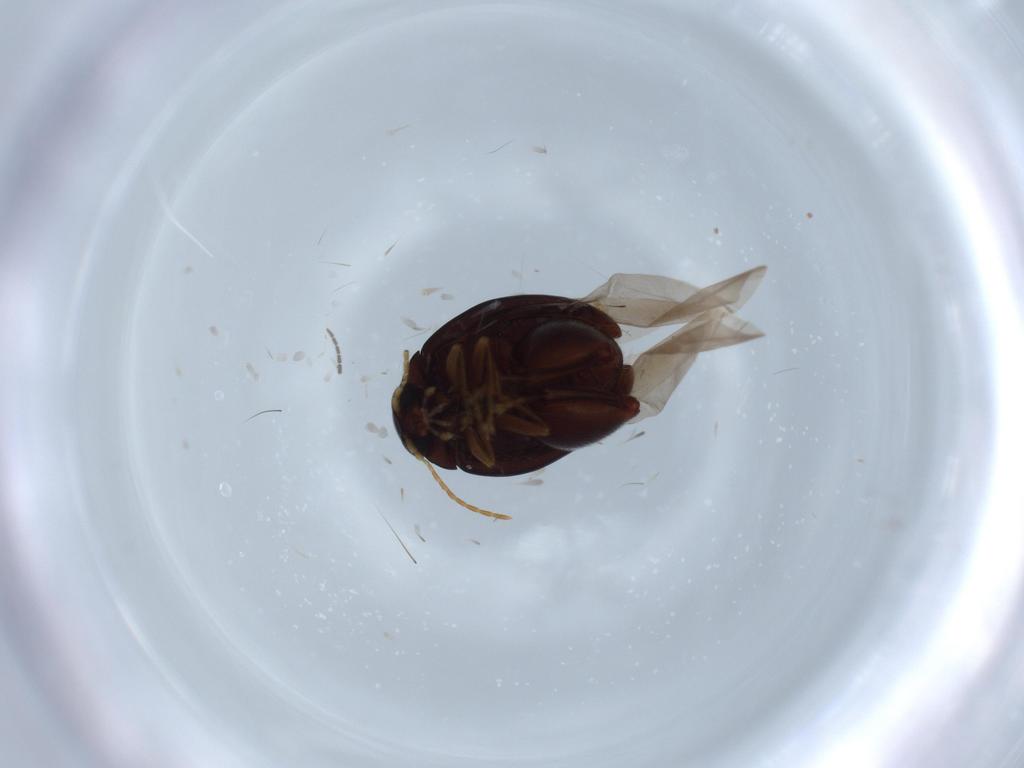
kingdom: Animalia
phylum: Arthropoda
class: Insecta
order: Coleoptera
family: Chrysomelidae
